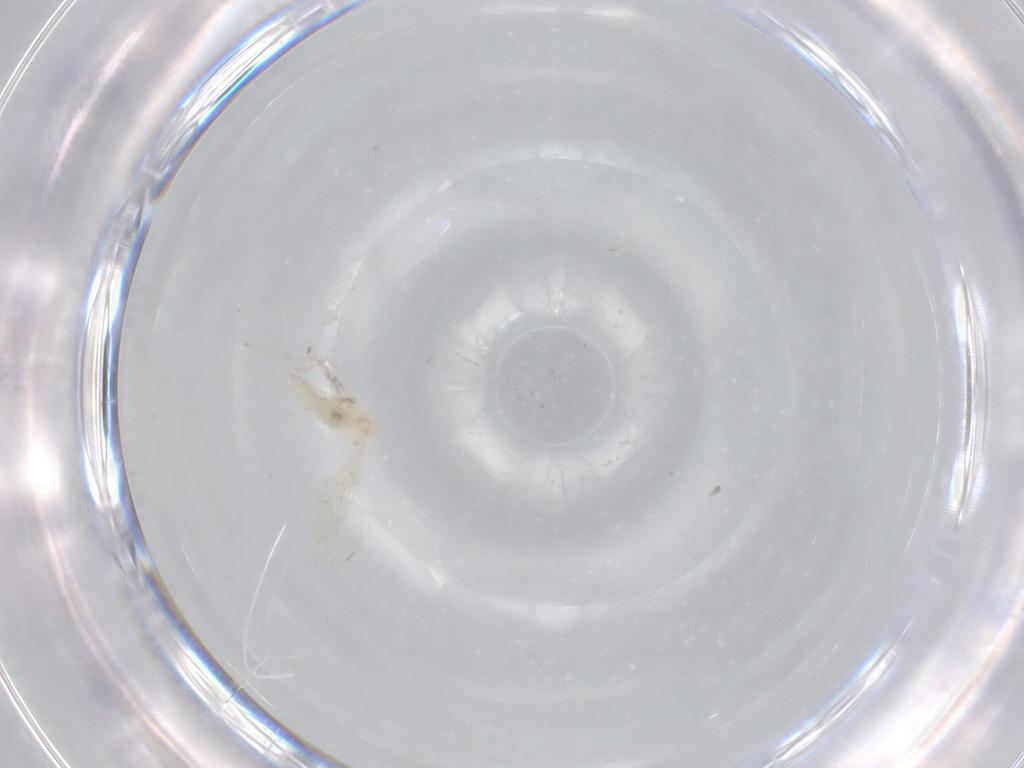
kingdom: Animalia
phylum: Arthropoda
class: Insecta
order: Diptera
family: Cecidomyiidae
